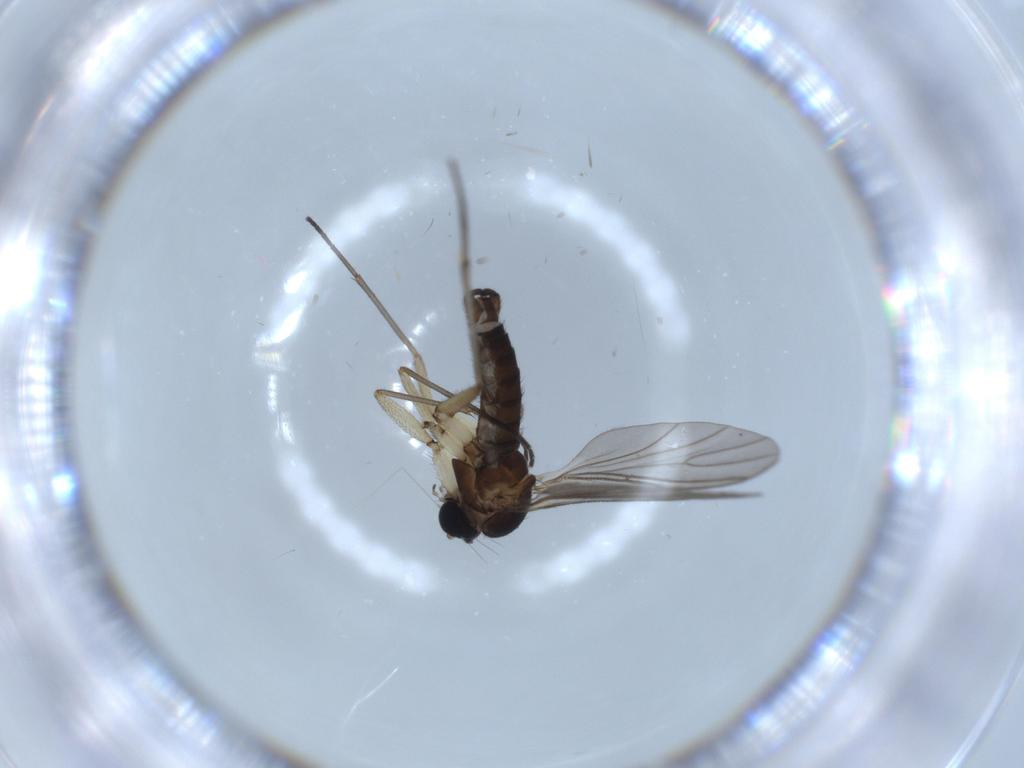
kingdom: Animalia
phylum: Arthropoda
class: Insecta
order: Diptera
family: Sciaridae
